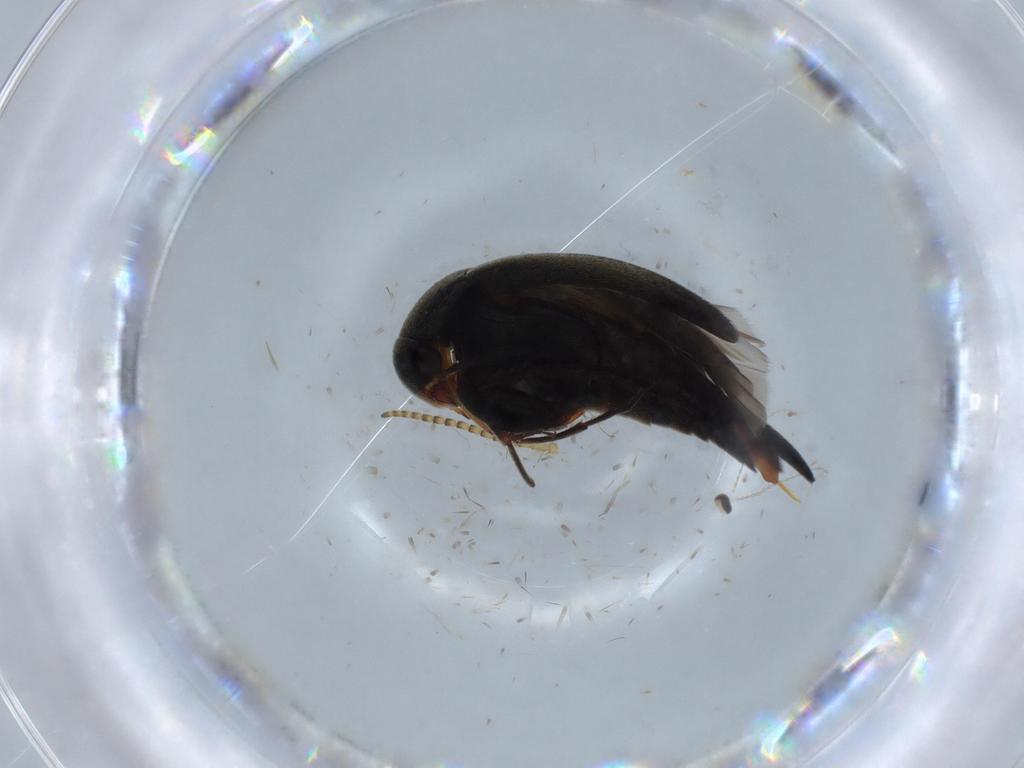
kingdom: Animalia
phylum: Arthropoda
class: Insecta
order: Coleoptera
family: Mordellidae
